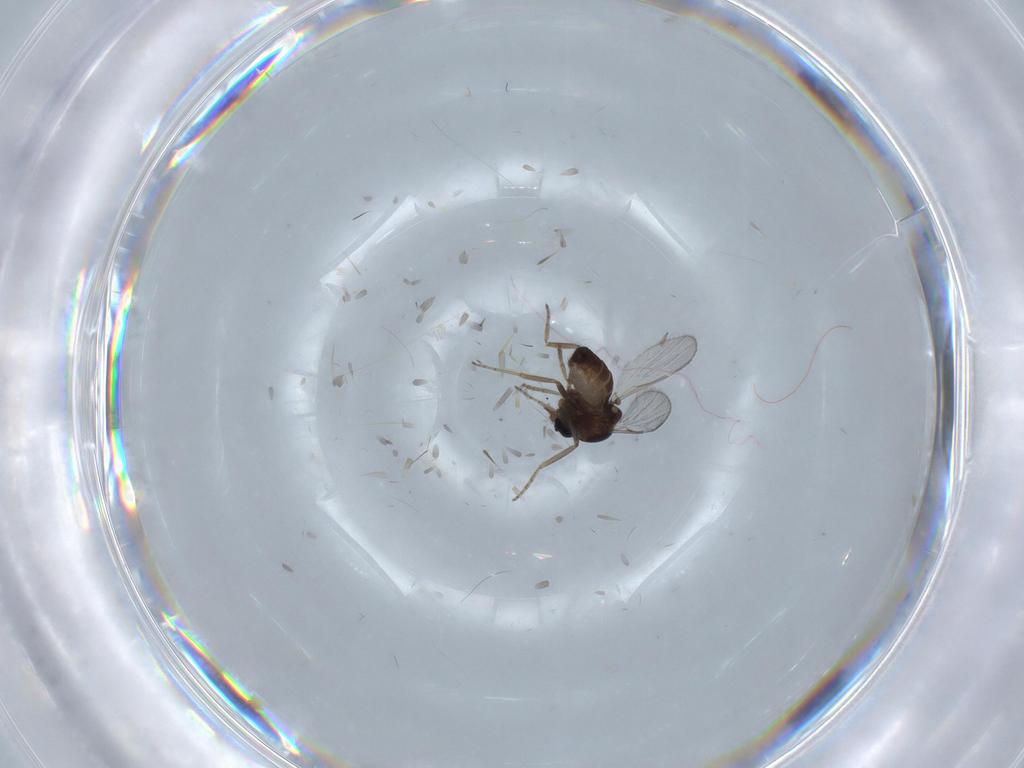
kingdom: Animalia
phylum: Arthropoda
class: Insecta
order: Diptera
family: Ceratopogonidae
